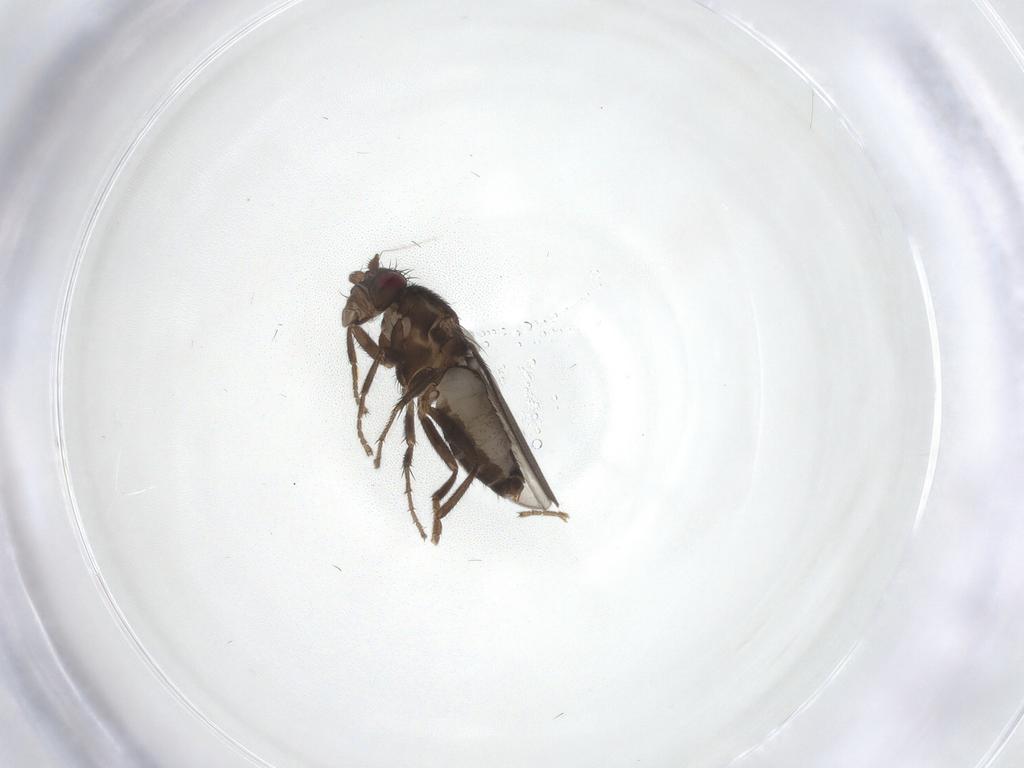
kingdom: Animalia
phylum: Arthropoda
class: Insecta
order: Diptera
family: Sphaeroceridae
